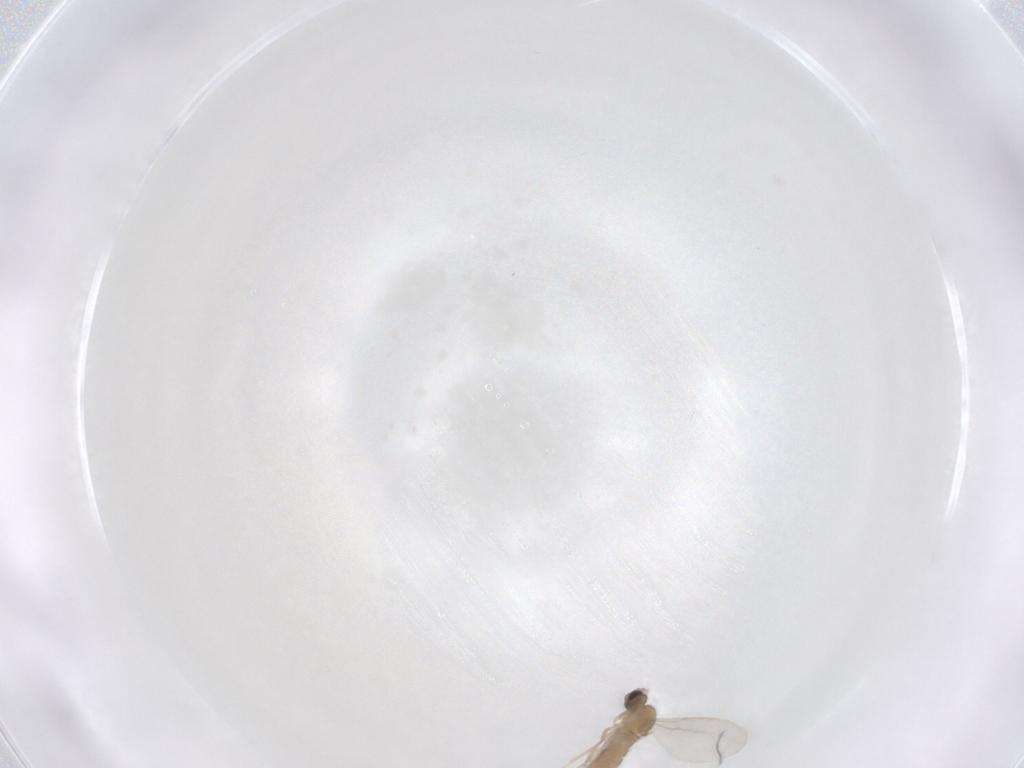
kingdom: Animalia
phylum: Arthropoda
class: Insecta
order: Diptera
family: Cecidomyiidae
